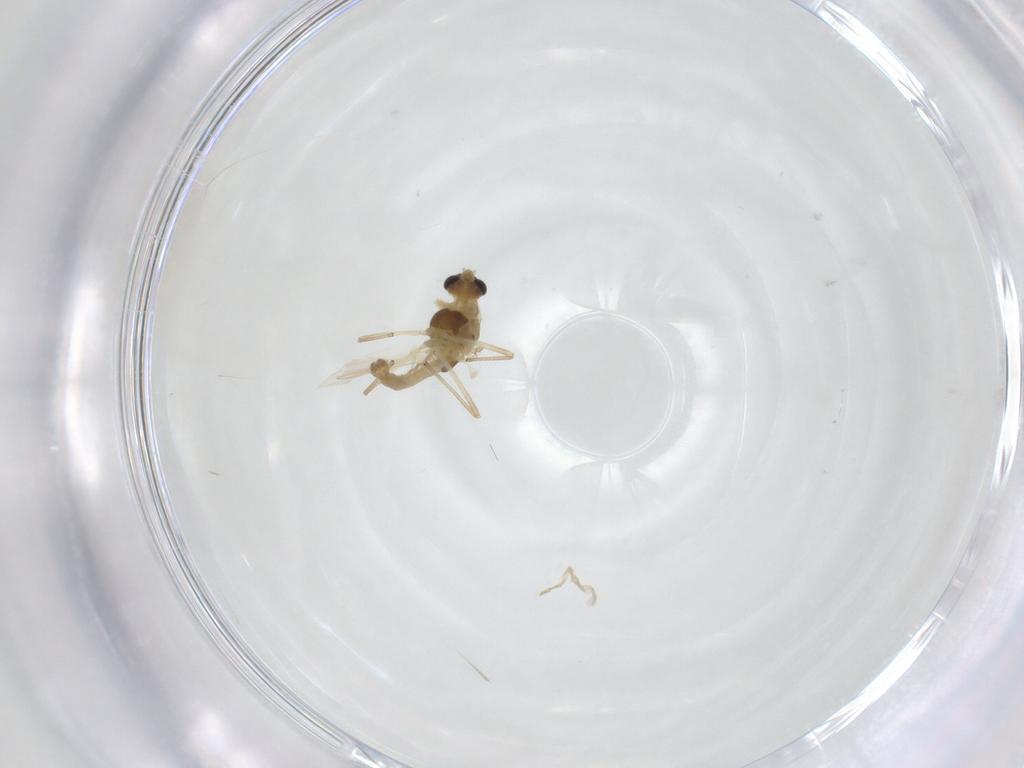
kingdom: Animalia
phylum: Arthropoda
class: Insecta
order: Diptera
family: Chironomidae
